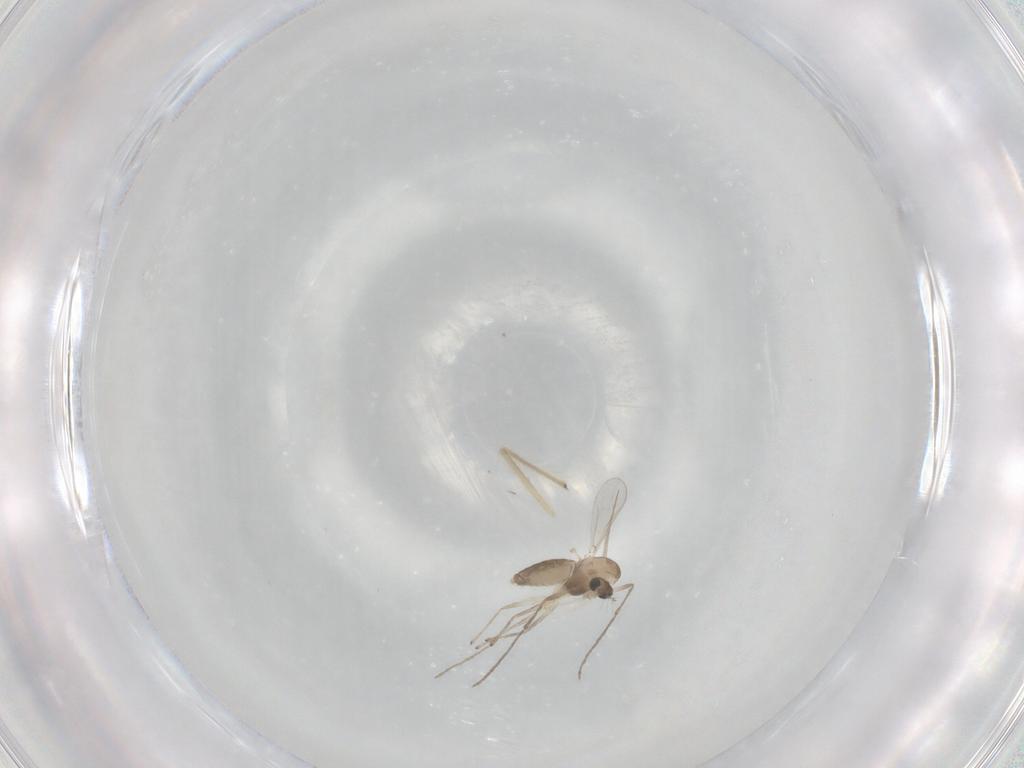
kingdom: Animalia
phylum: Arthropoda
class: Insecta
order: Diptera
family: Chironomidae
